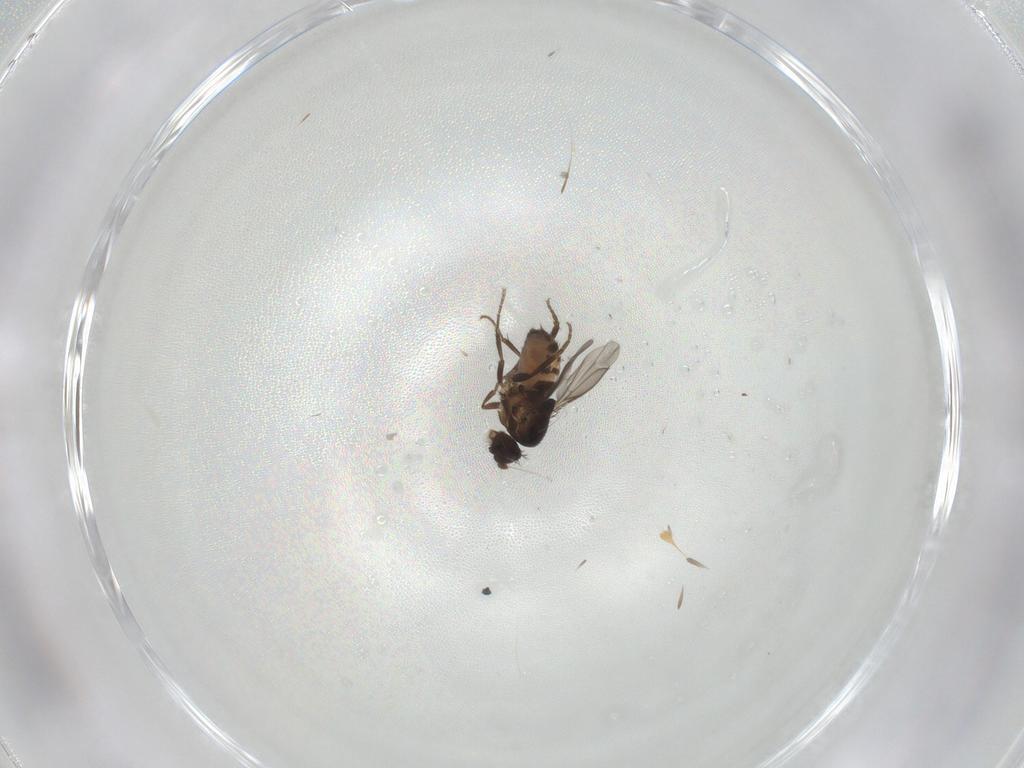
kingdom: Animalia
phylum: Arthropoda
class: Insecta
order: Diptera
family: Sphaeroceridae
